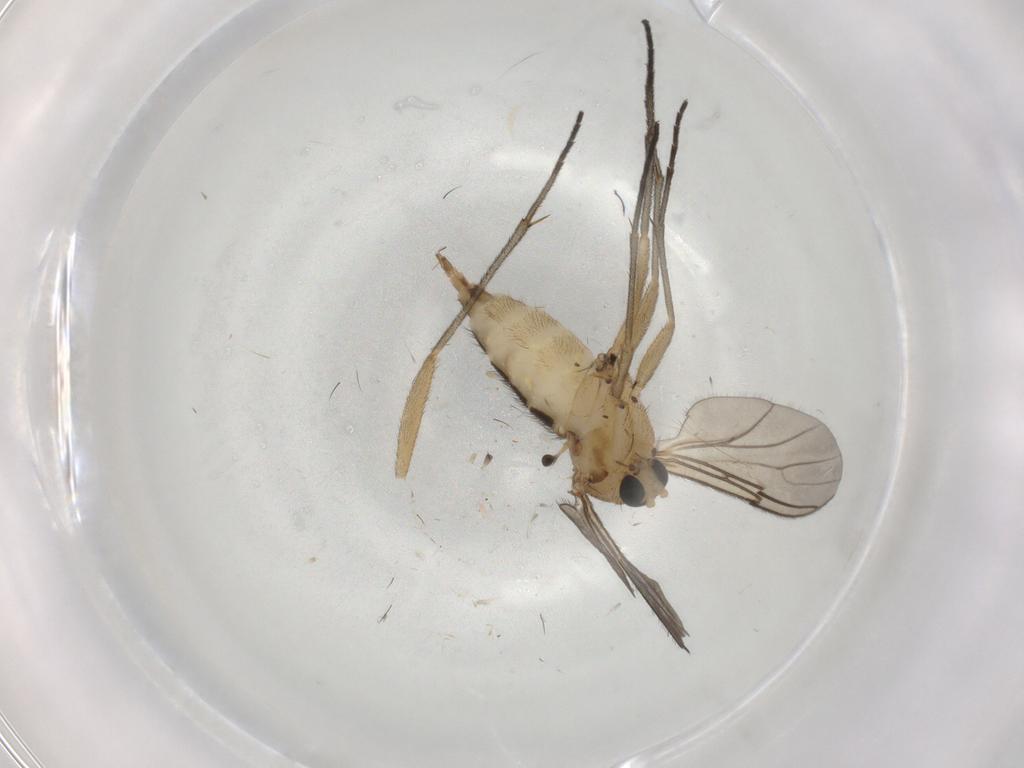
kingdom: Animalia
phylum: Arthropoda
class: Insecta
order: Diptera
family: Sciaridae
